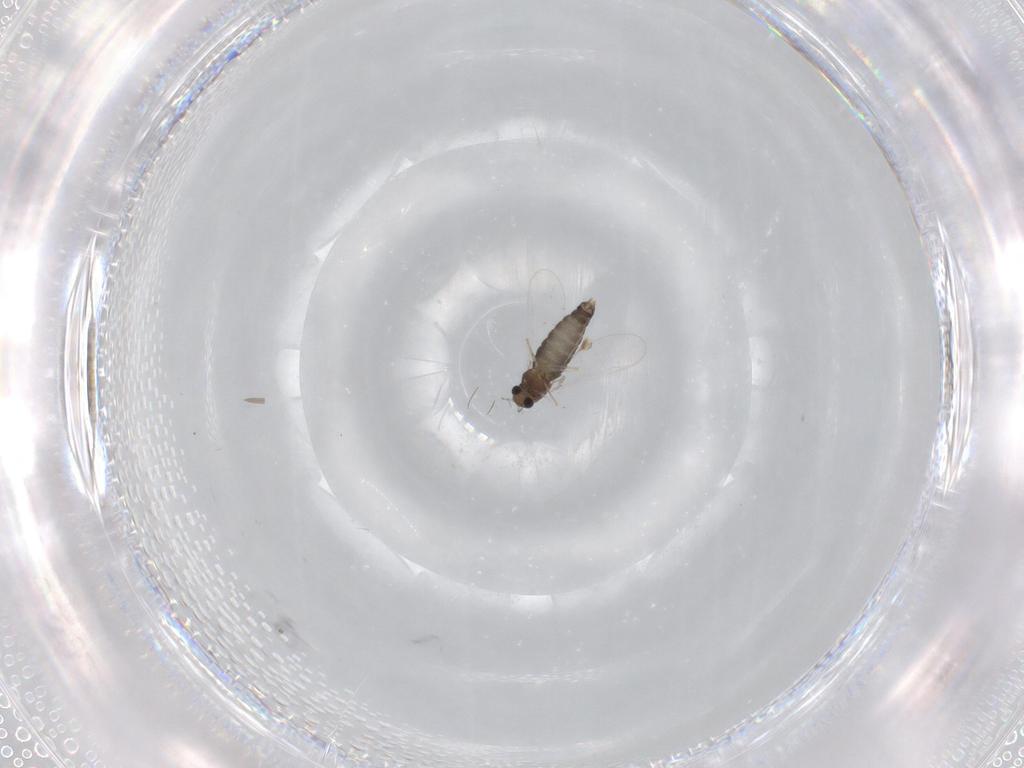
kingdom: Animalia
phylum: Arthropoda
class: Insecta
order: Diptera
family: Chironomidae
